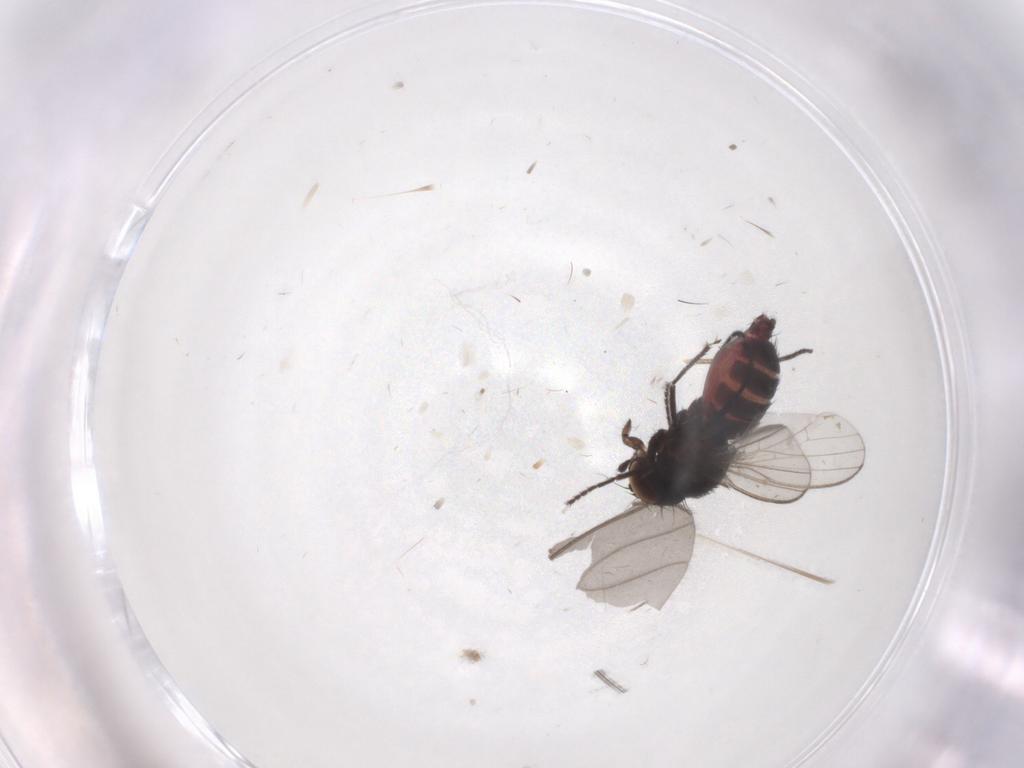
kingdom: Animalia
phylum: Arthropoda
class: Insecta
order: Diptera
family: Milichiidae
